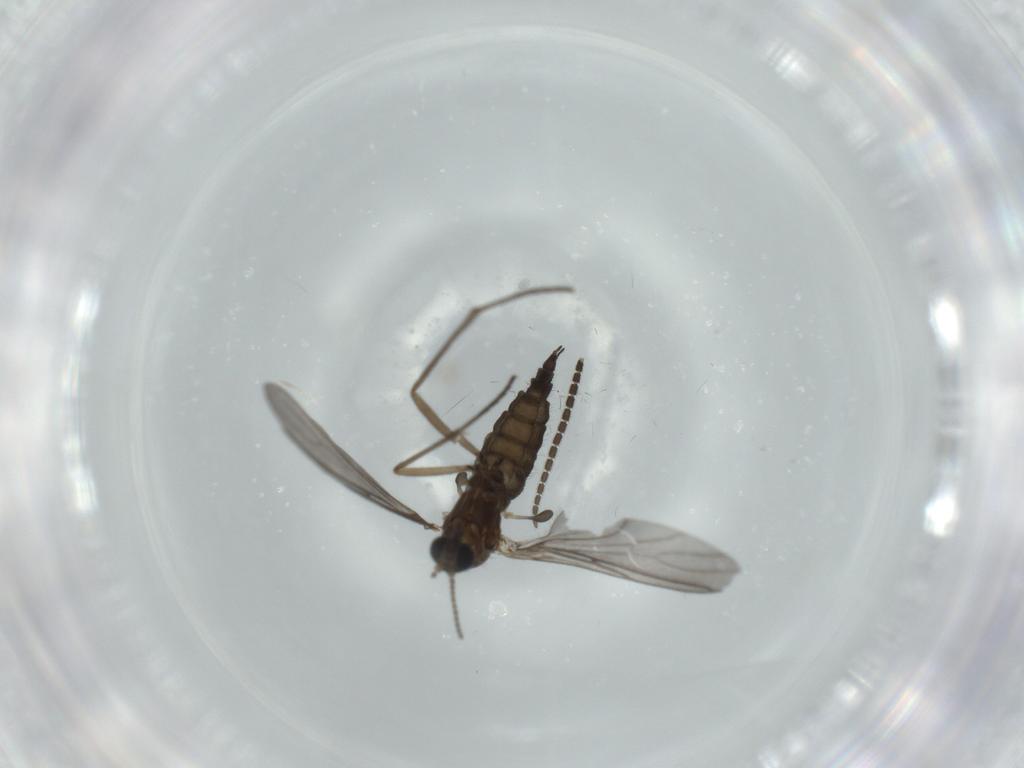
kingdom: Animalia
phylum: Arthropoda
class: Insecta
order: Diptera
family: Sciaridae
